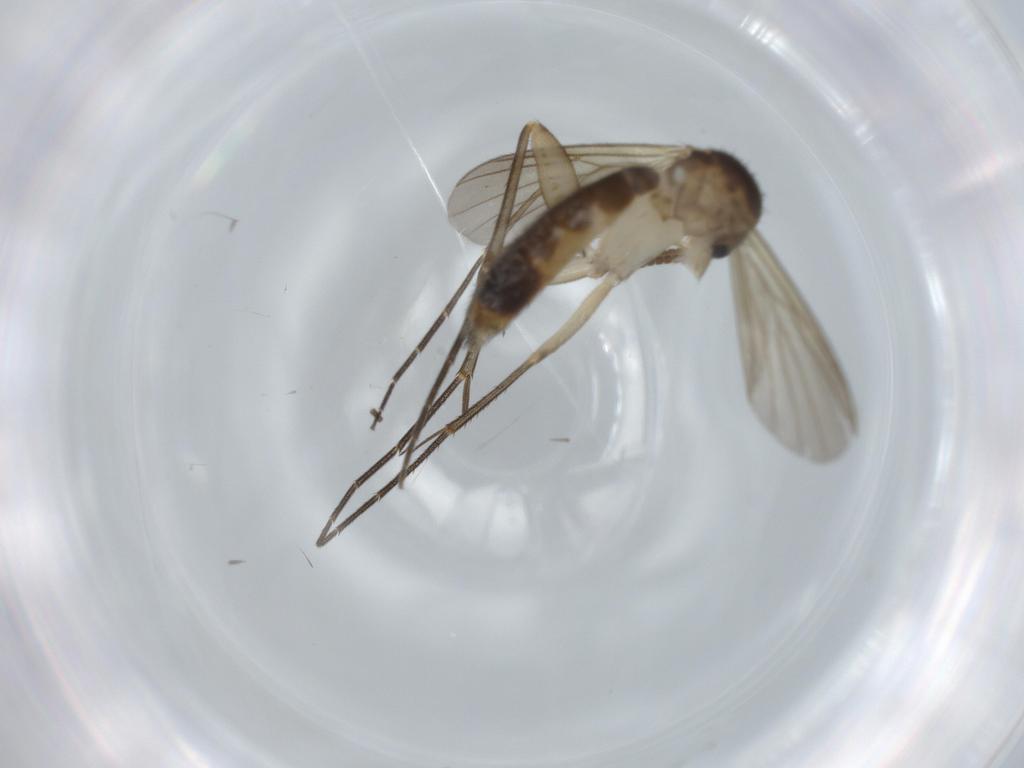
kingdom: Animalia
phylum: Arthropoda
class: Insecta
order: Diptera
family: Mycetophilidae
